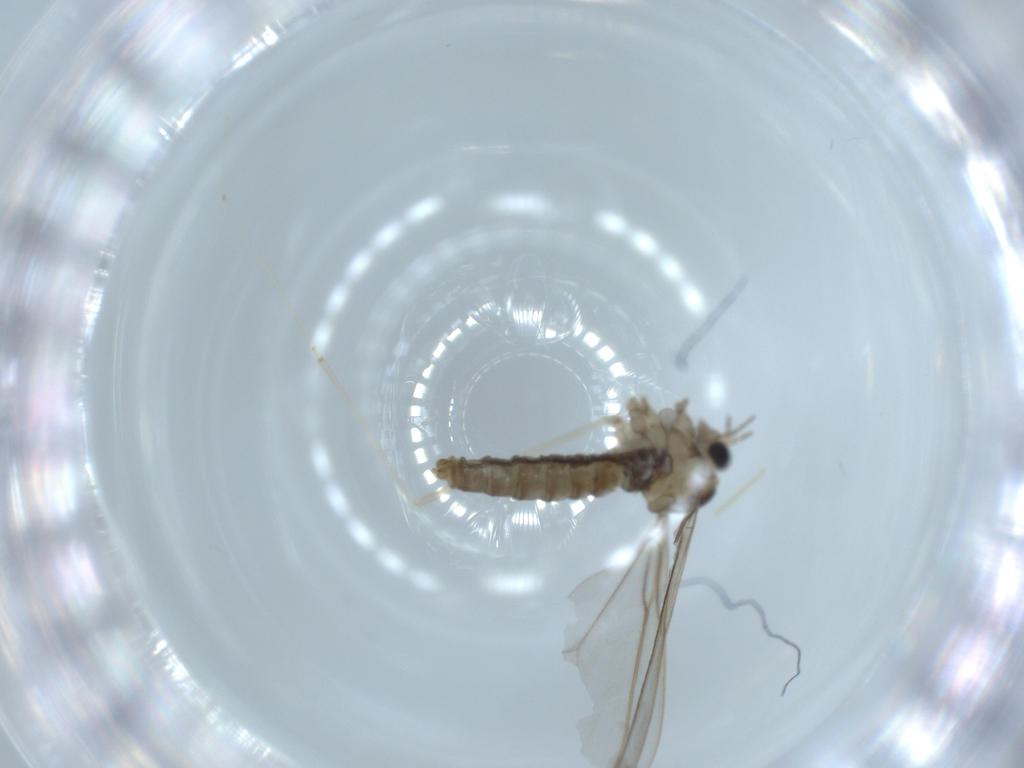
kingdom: Animalia
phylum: Arthropoda
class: Insecta
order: Diptera
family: Cecidomyiidae
